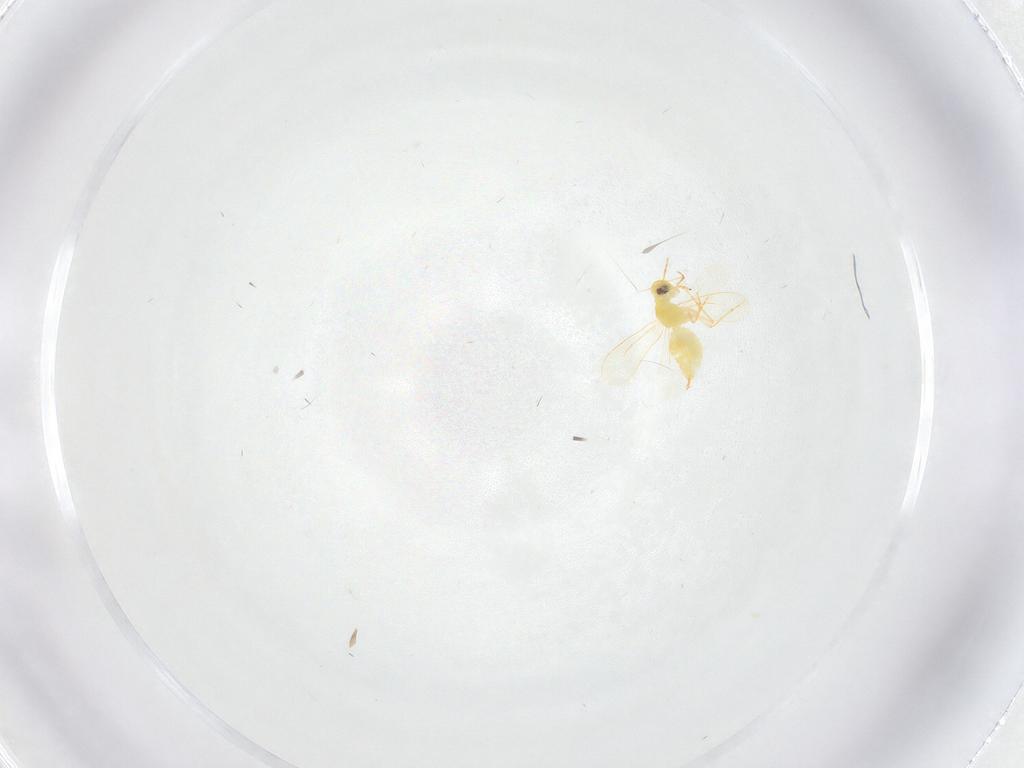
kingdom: Animalia
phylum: Arthropoda
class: Insecta
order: Hemiptera
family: Aleyrodidae
